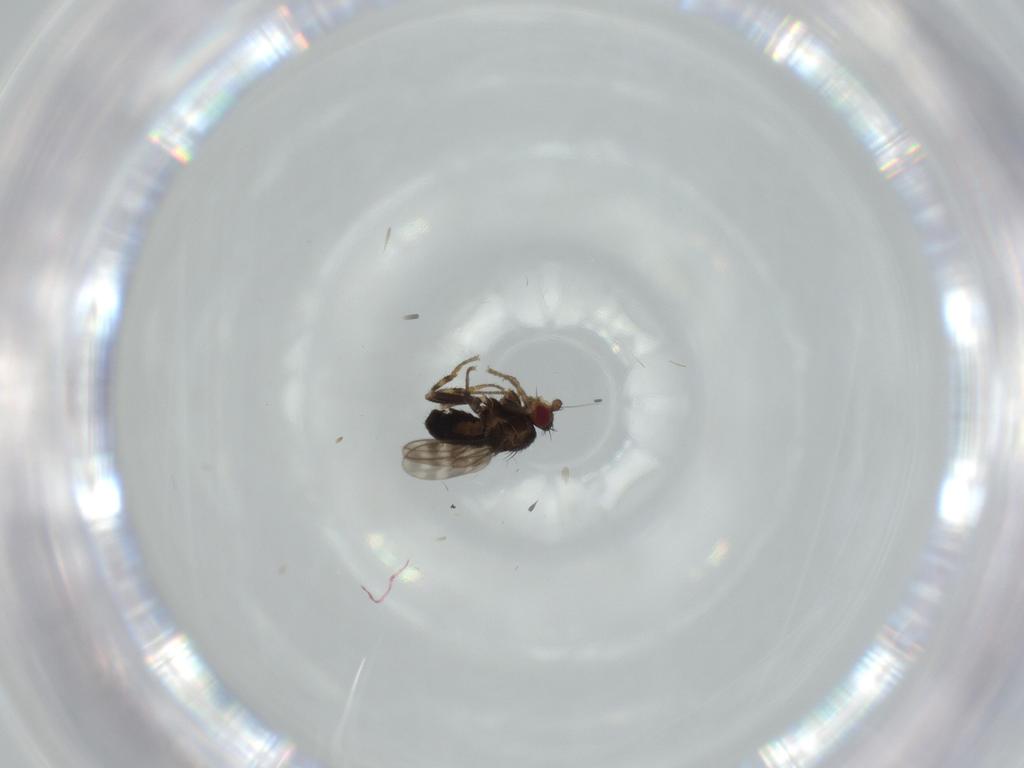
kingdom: Animalia
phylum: Arthropoda
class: Insecta
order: Diptera
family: Sphaeroceridae
